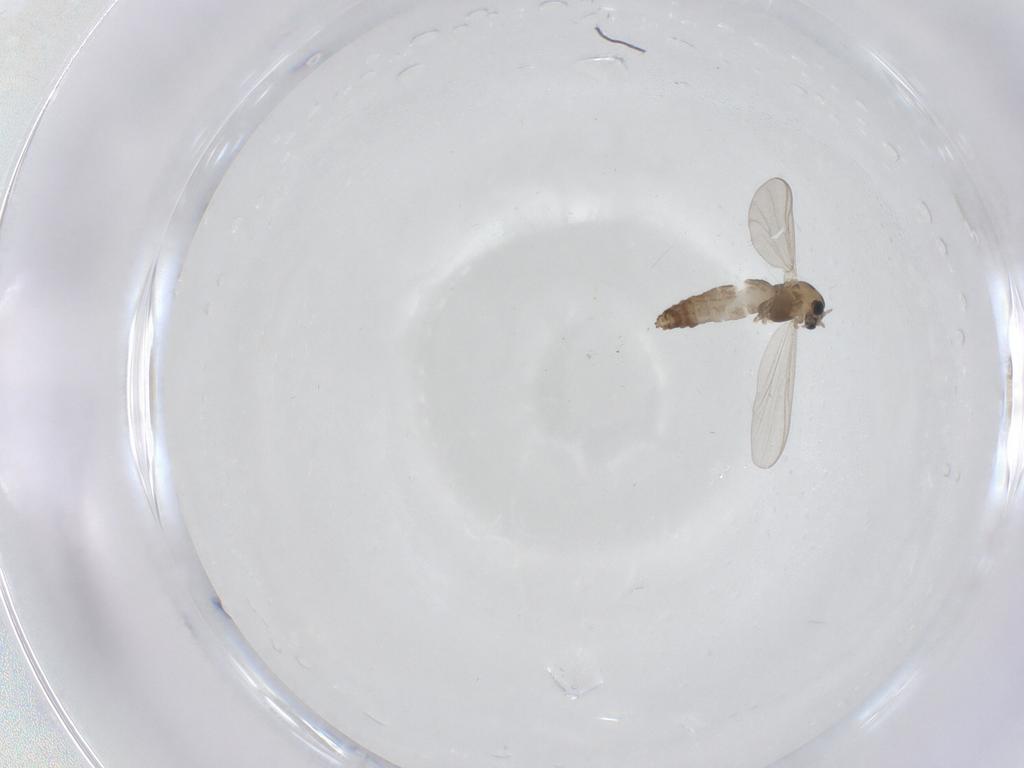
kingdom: Animalia
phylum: Arthropoda
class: Insecta
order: Diptera
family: Chironomidae
